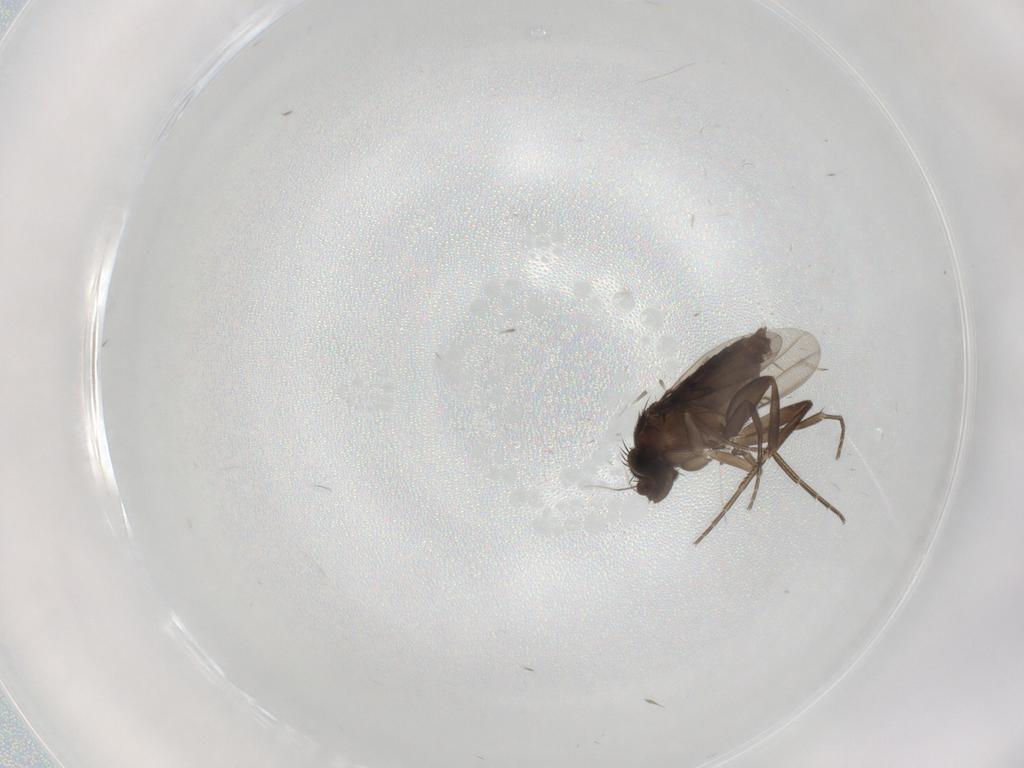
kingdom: Animalia
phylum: Arthropoda
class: Insecta
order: Diptera
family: Phoridae
